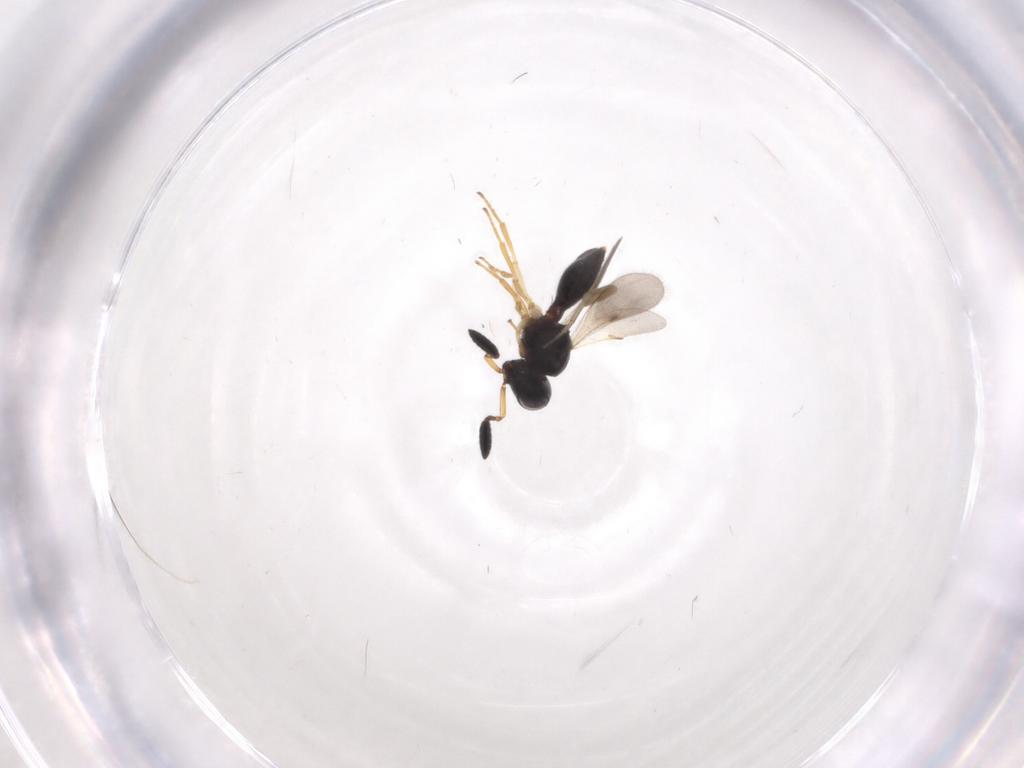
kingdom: Animalia
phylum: Arthropoda
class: Insecta
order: Hymenoptera
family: Scelionidae
